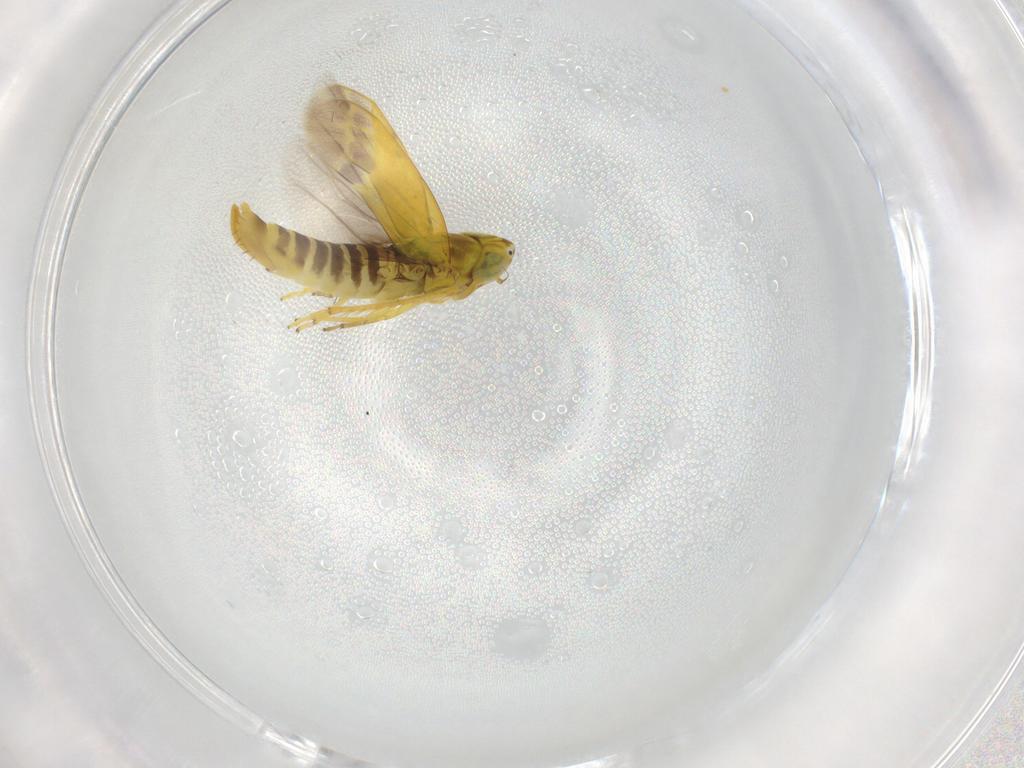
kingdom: Animalia
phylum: Arthropoda
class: Insecta
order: Hemiptera
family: Cicadellidae
